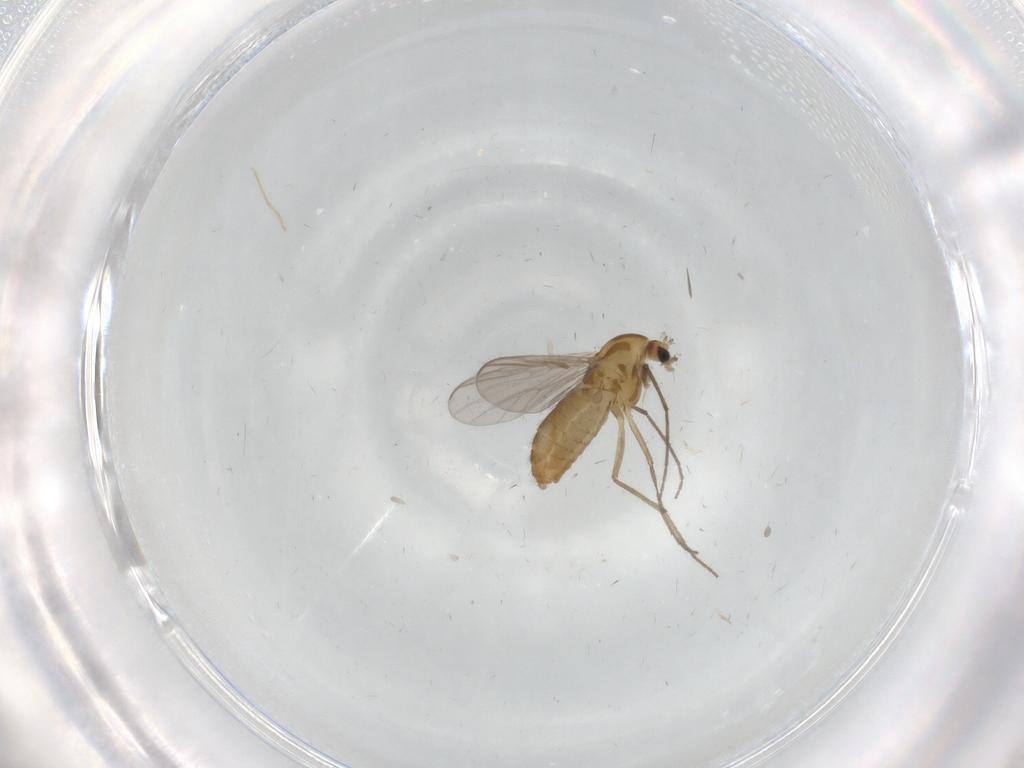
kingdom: Animalia
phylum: Arthropoda
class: Insecta
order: Diptera
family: Chironomidae
